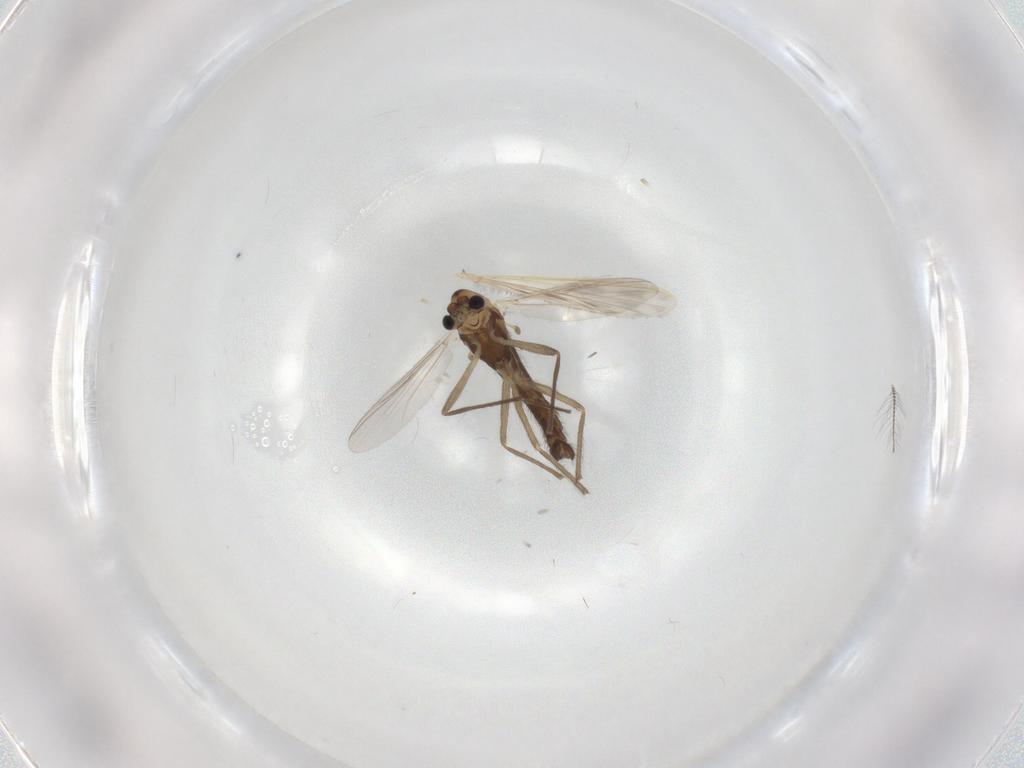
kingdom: Animalia
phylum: Arthropoda
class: Insecta
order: Diptera
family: Chironomidae
